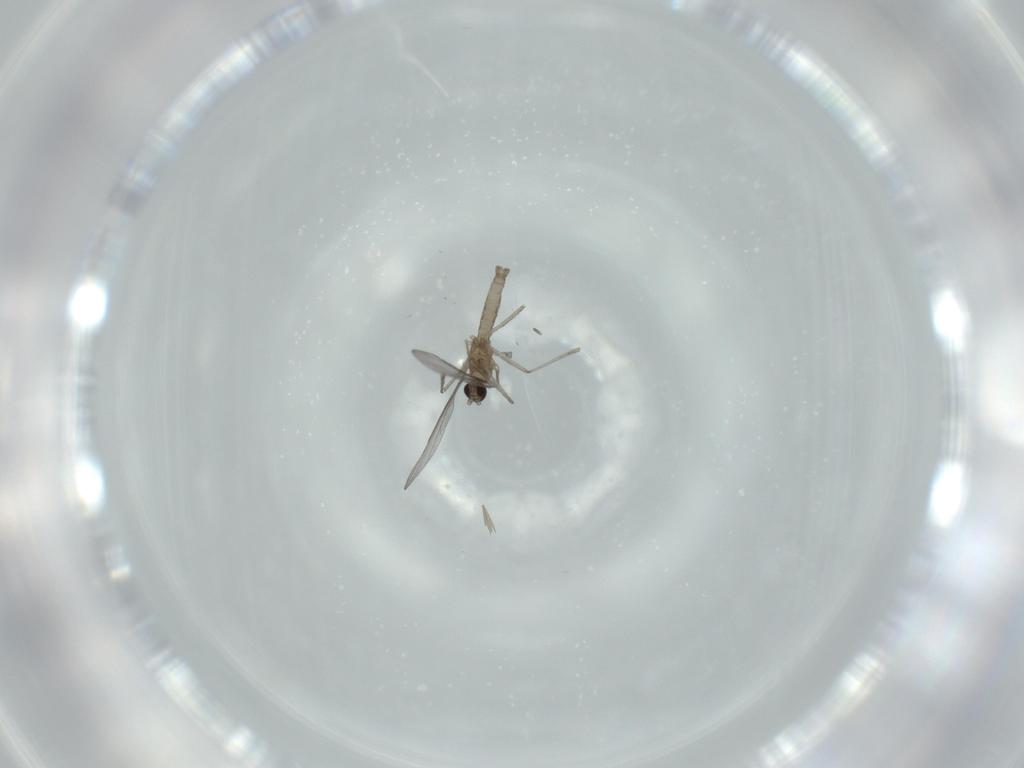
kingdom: Animalia
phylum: Arthropoda
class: Insecta
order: Diptera
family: Cecidomyiidae
